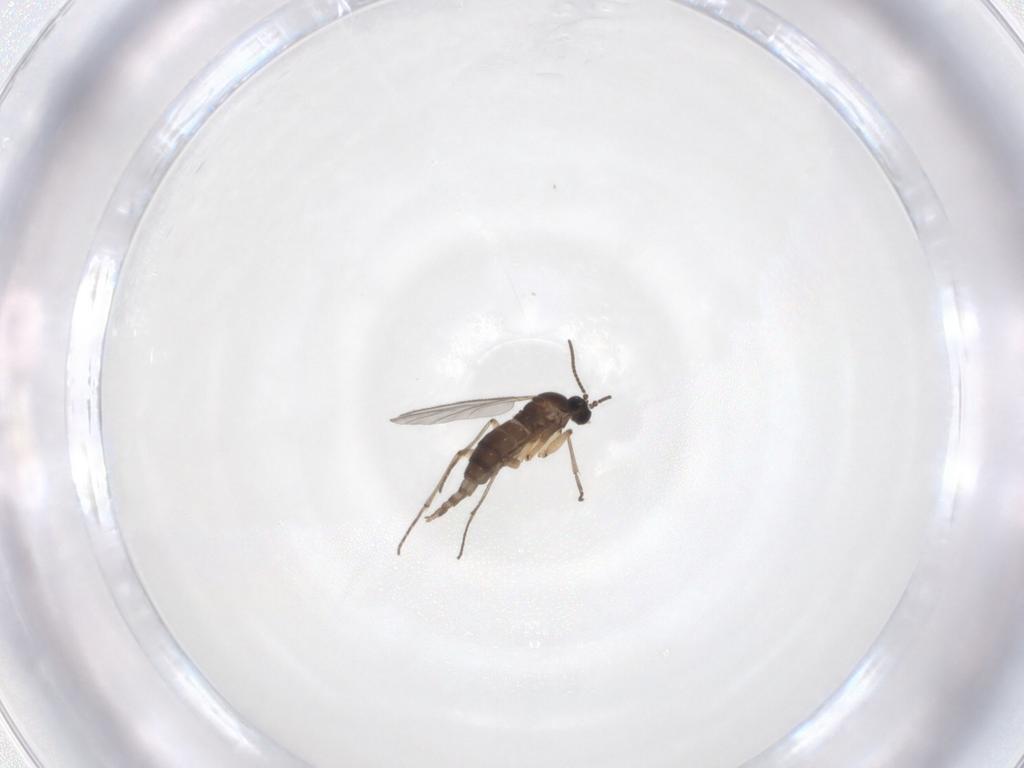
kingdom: Animalia
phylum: Arthropoda
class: Insecta
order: Diptera
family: Sciaridae
